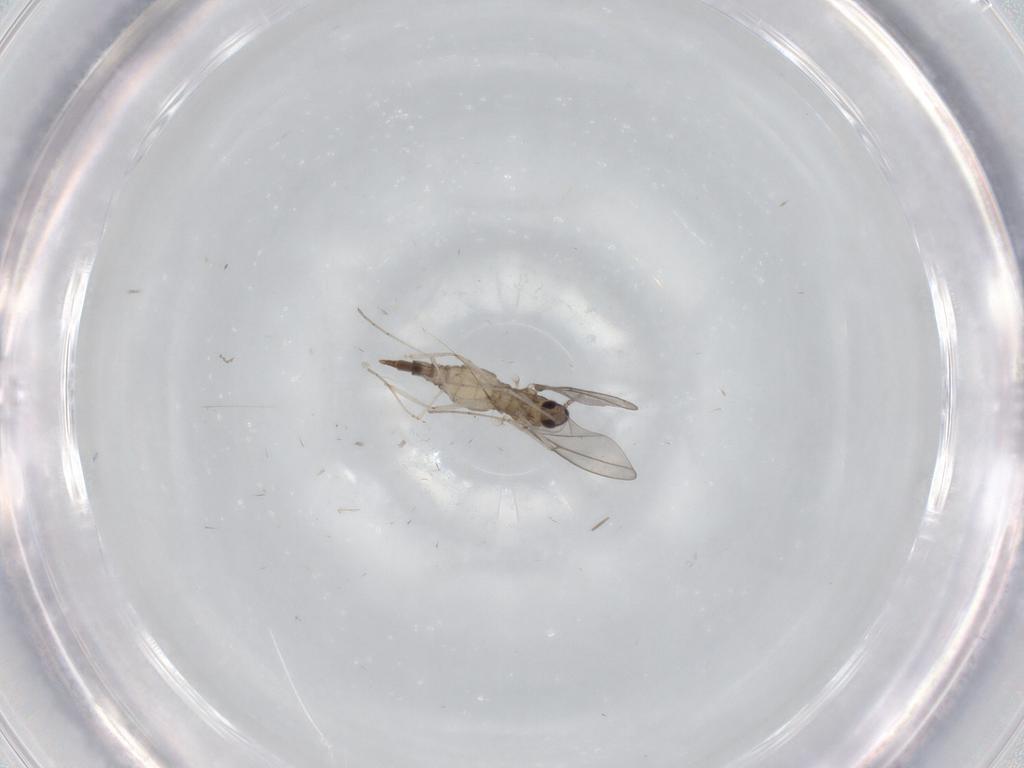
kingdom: Animalia
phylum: Arthropoda
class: Insecta
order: Diptera
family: Cecidomyiidae
